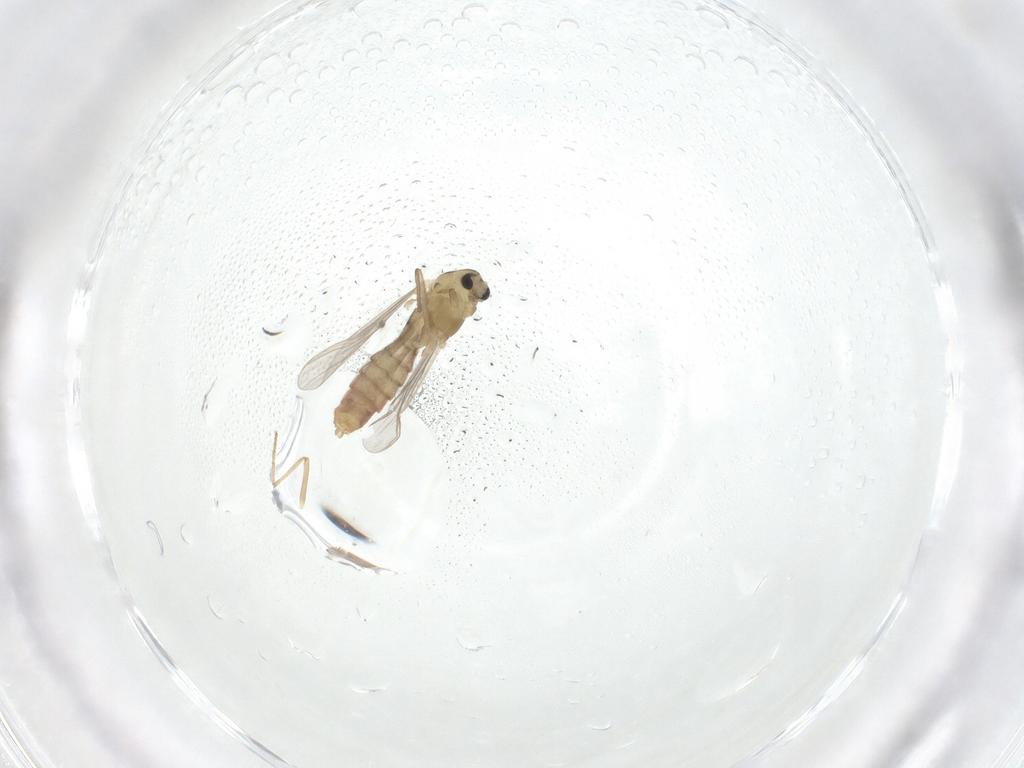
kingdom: Animalia
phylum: Arthropoda
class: Insecta
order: Diptera
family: Chironomidae
